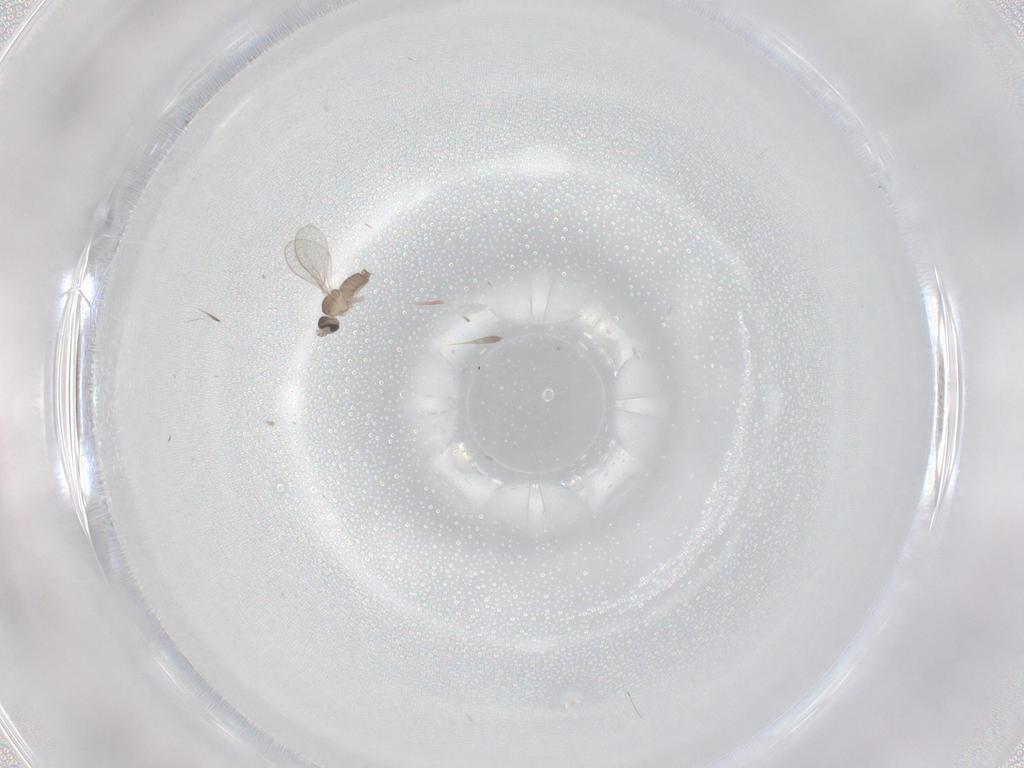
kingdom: Animalia
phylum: Arthropoda
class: Insecta
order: Diptera
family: Cecidomyiidae
